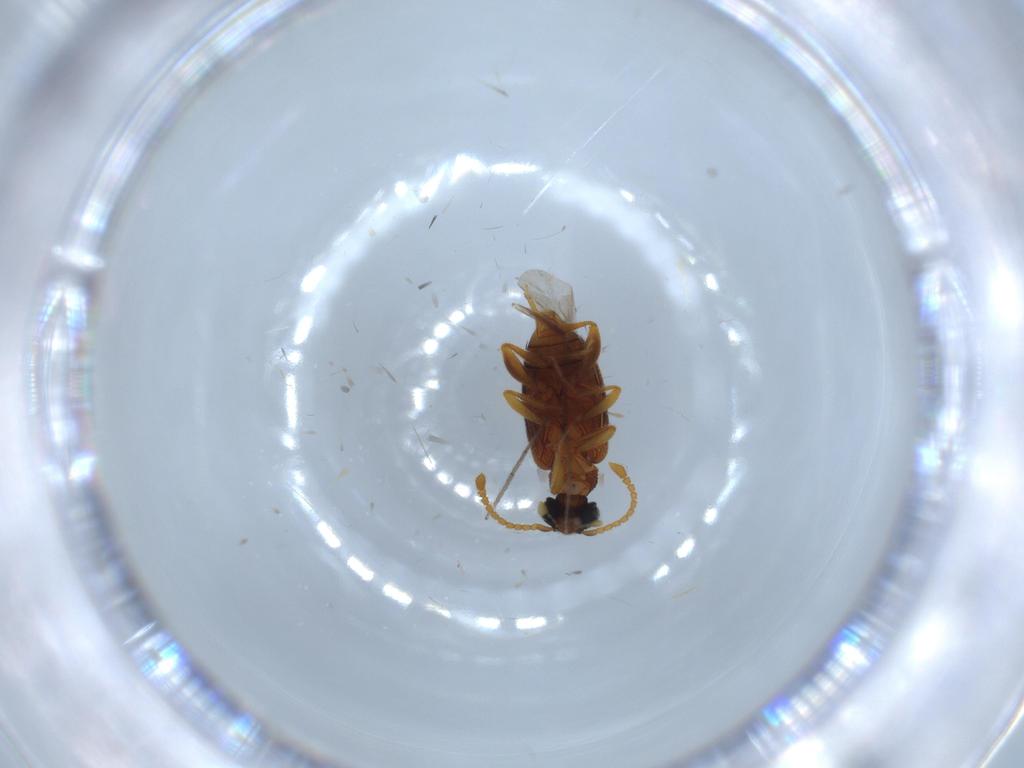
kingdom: Animalia
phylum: Arthropoda
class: Insecta
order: Coleoptera
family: Aderidae
